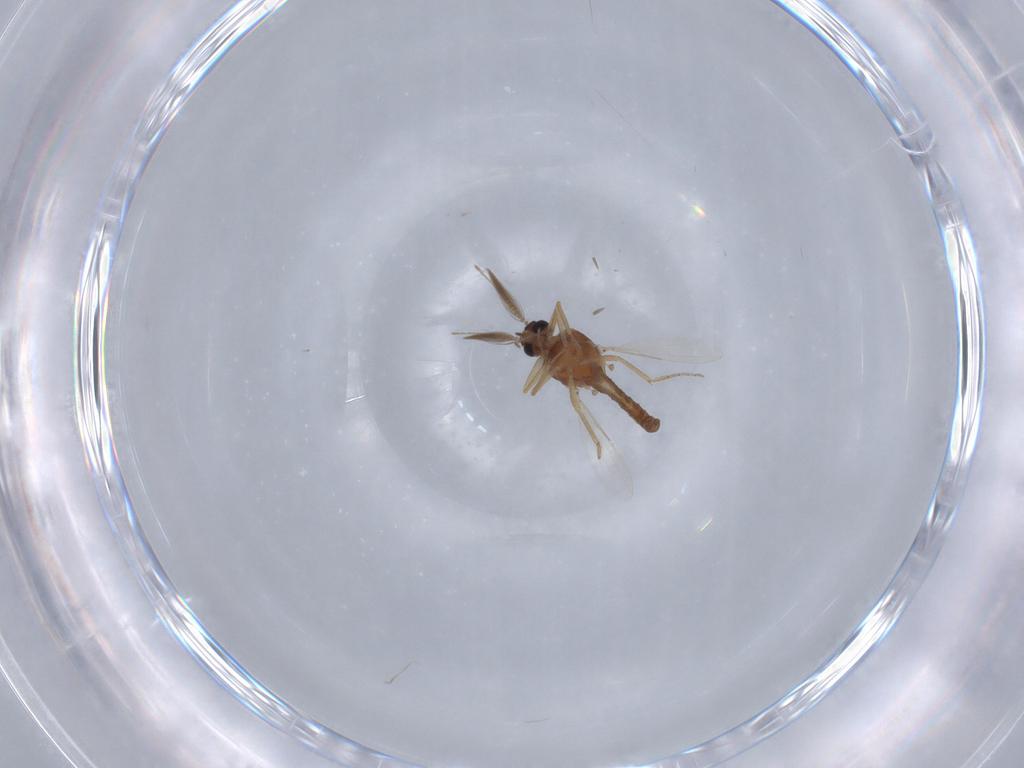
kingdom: Animalia
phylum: Arthropoda
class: Insecta
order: Diptera
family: Ceratopogonidae
